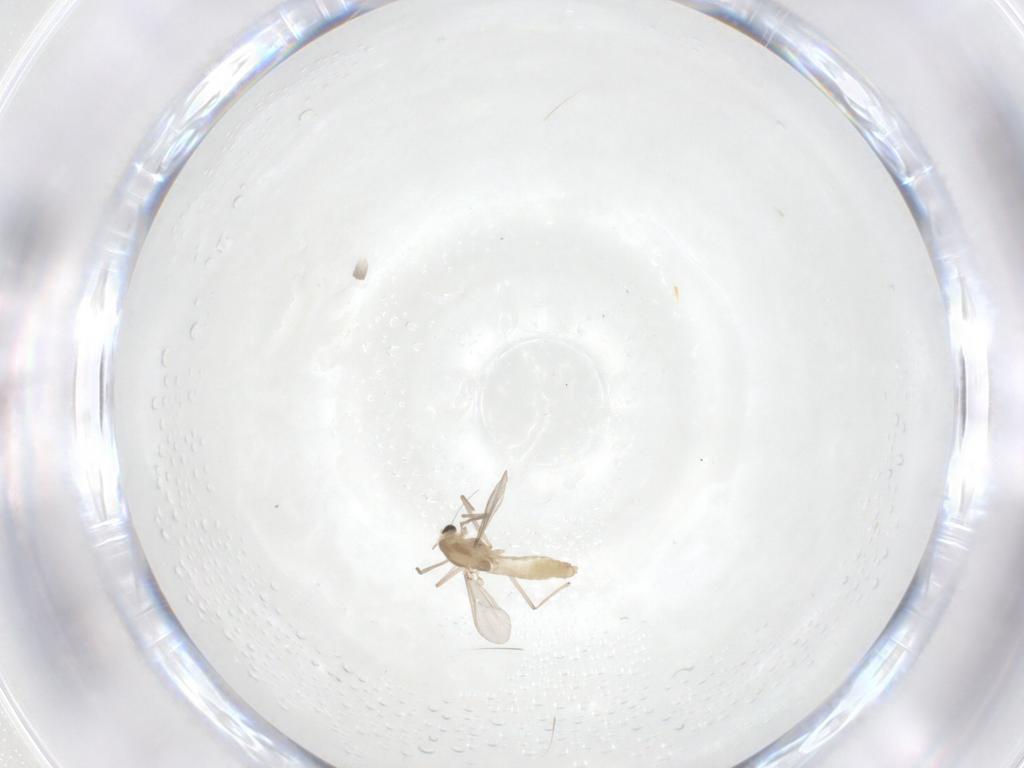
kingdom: Animalia
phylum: Arthropoda
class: Insecta
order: Diptera
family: Chironomidae
